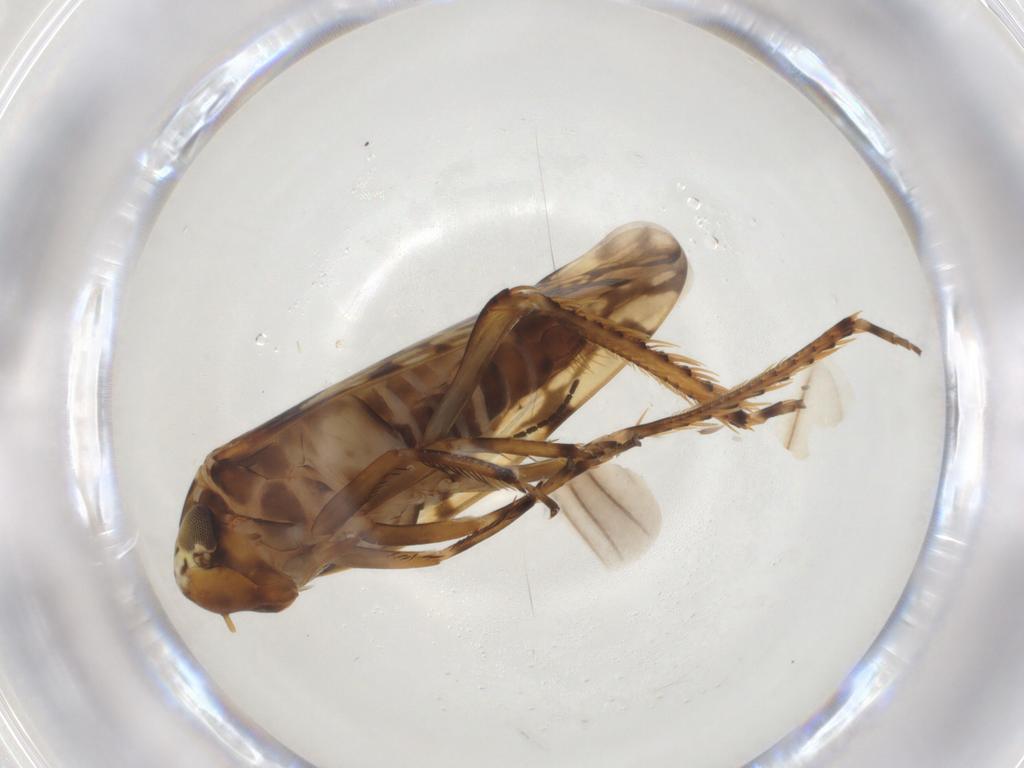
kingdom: Animalia
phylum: Arthropoda
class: Insecta
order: Hemiptera
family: Cicadellidae
